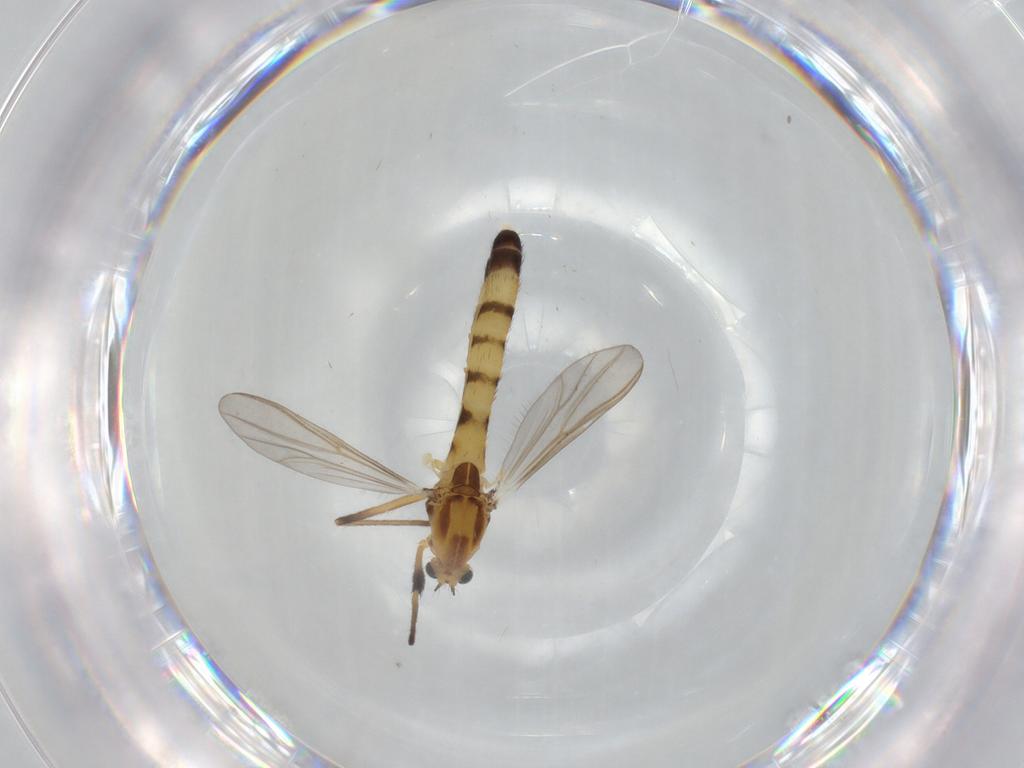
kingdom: Animalia
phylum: Arthropoda
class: Insecta
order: Diptera
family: Chironomidae
